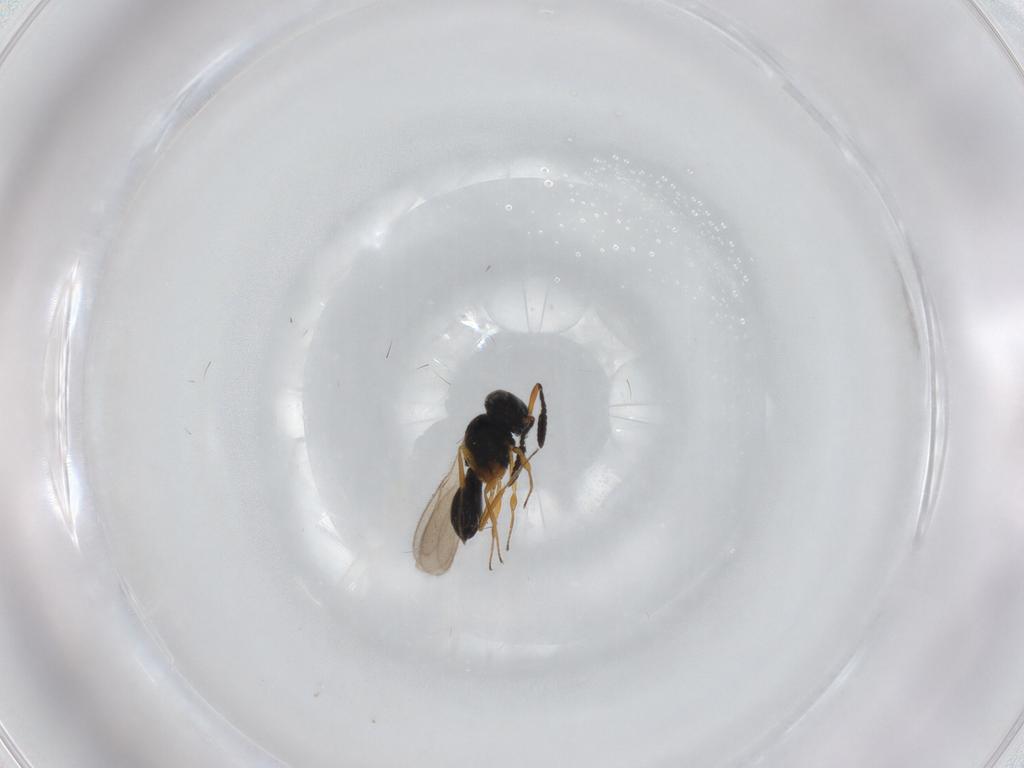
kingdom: Animalia
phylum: Arthropoda
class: Insecta
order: Hymenoptera
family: Scelionidae
